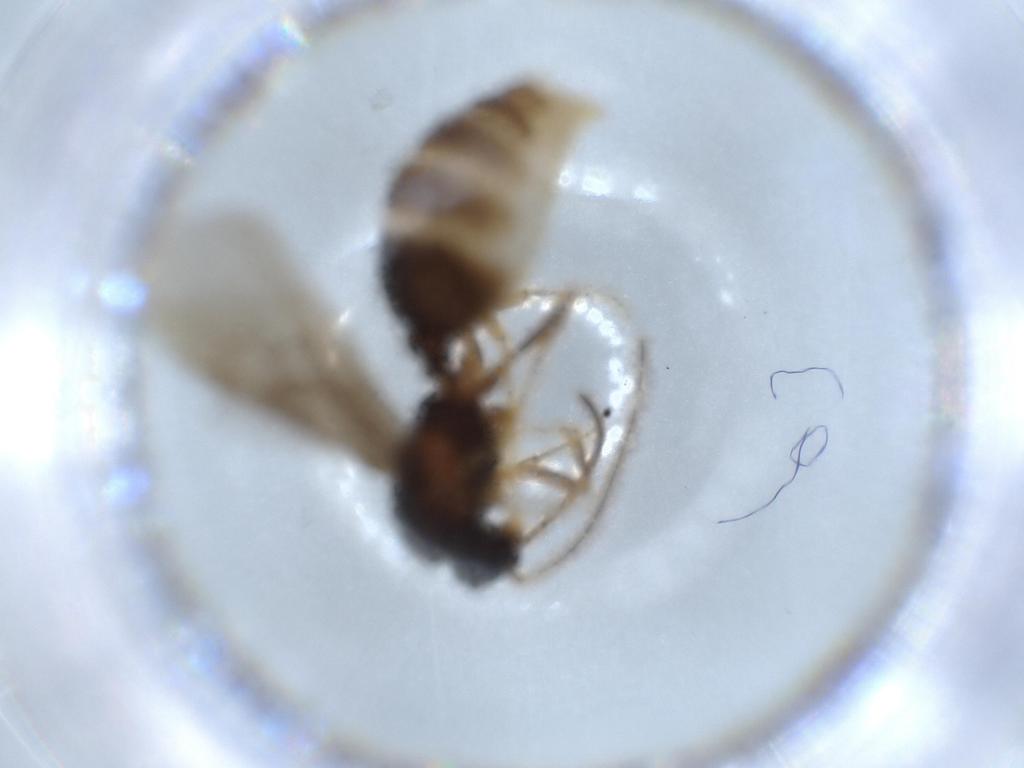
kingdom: Animalia
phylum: Arthropoda
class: Insecta
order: Hymenoptera
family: Formicidae
